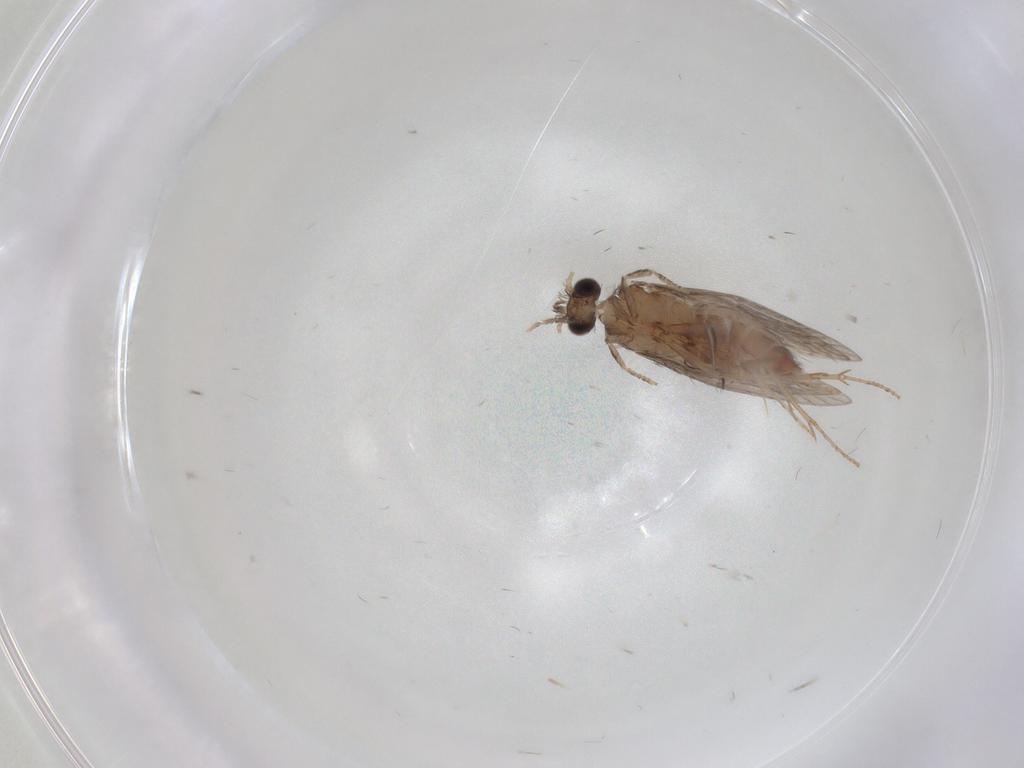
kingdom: Animalia
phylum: Arthropoda
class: Insecta
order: Trichoptera
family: Hydroptilidae
